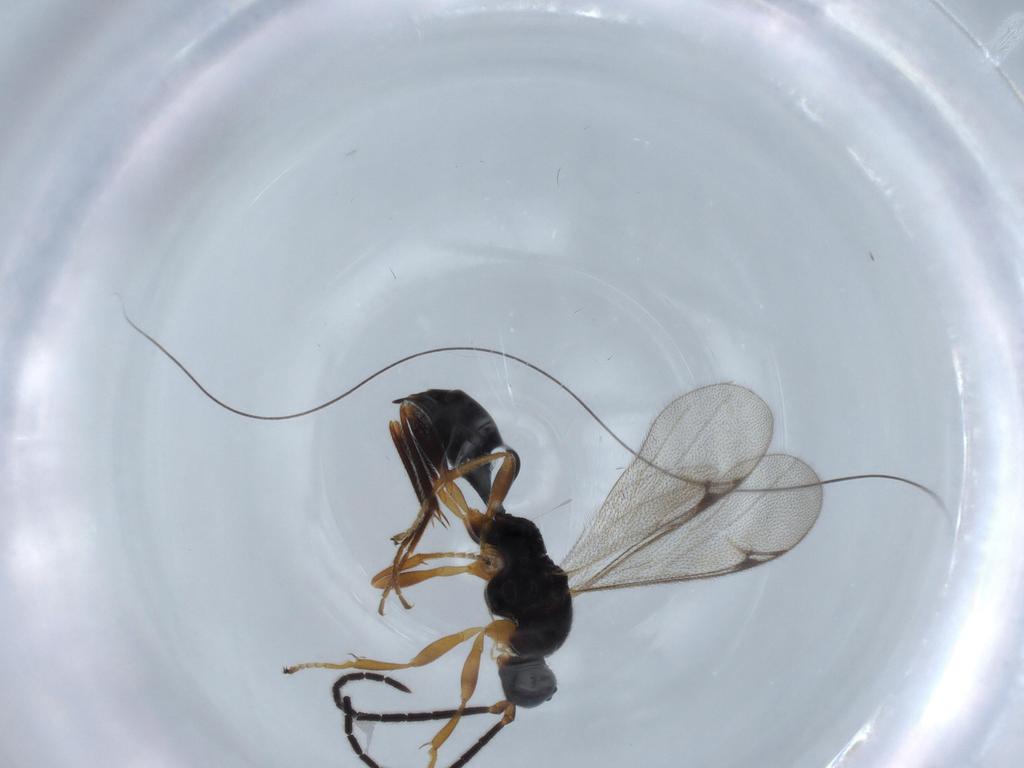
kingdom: Animalia
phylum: Arthropoda
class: Insecta
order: Hymenoptera
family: Proctotrupidae
